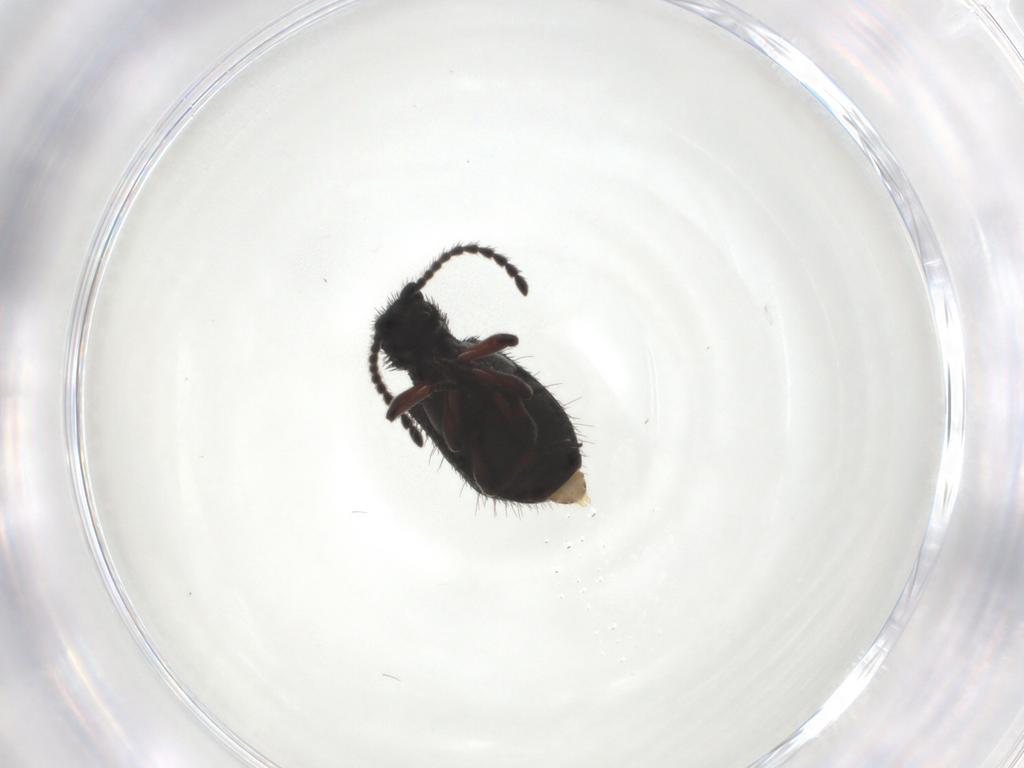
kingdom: Animalia
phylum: Arthropoda
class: Insecta
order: Coleoptera
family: Ptinidae
